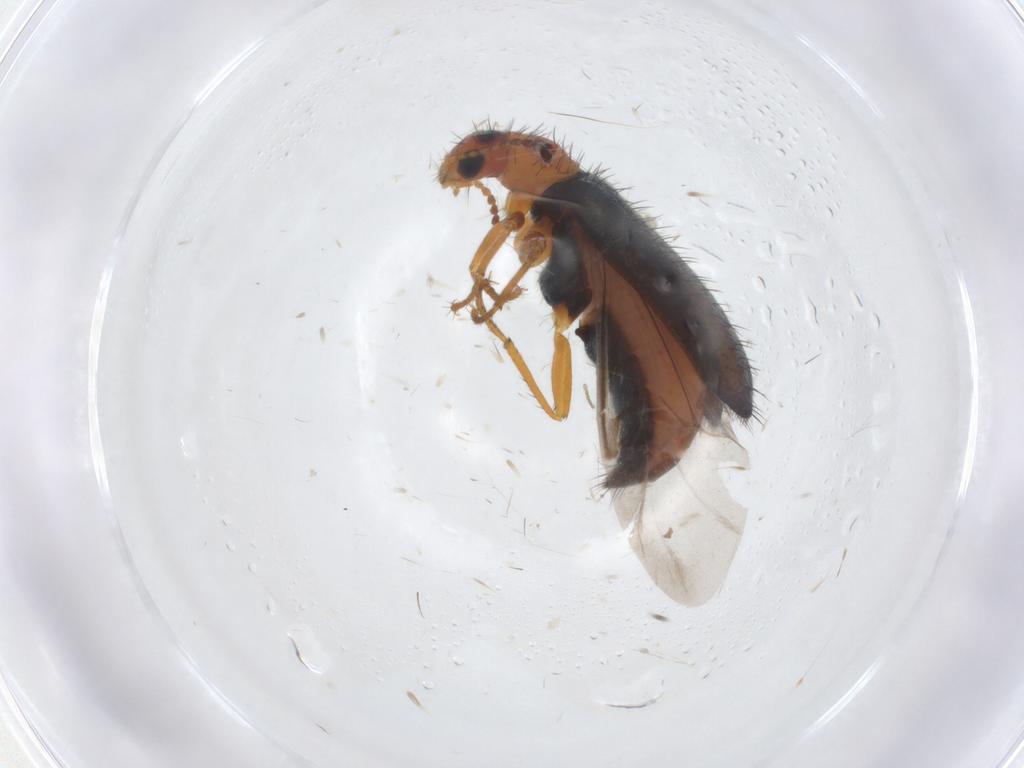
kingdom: Animalia
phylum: Arthropoda
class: Insecta
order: Coleoptera
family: Melyridae
